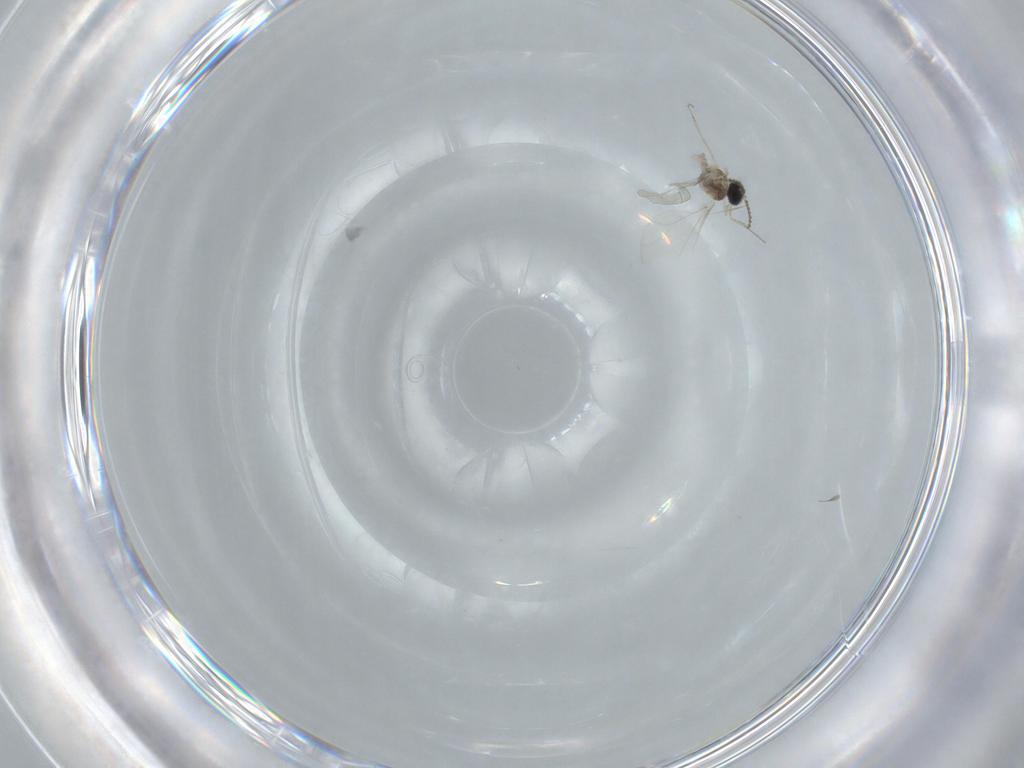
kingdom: Animalia
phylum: Arthropoda
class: Insecta
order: Diptera
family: Cecidomyiidae
